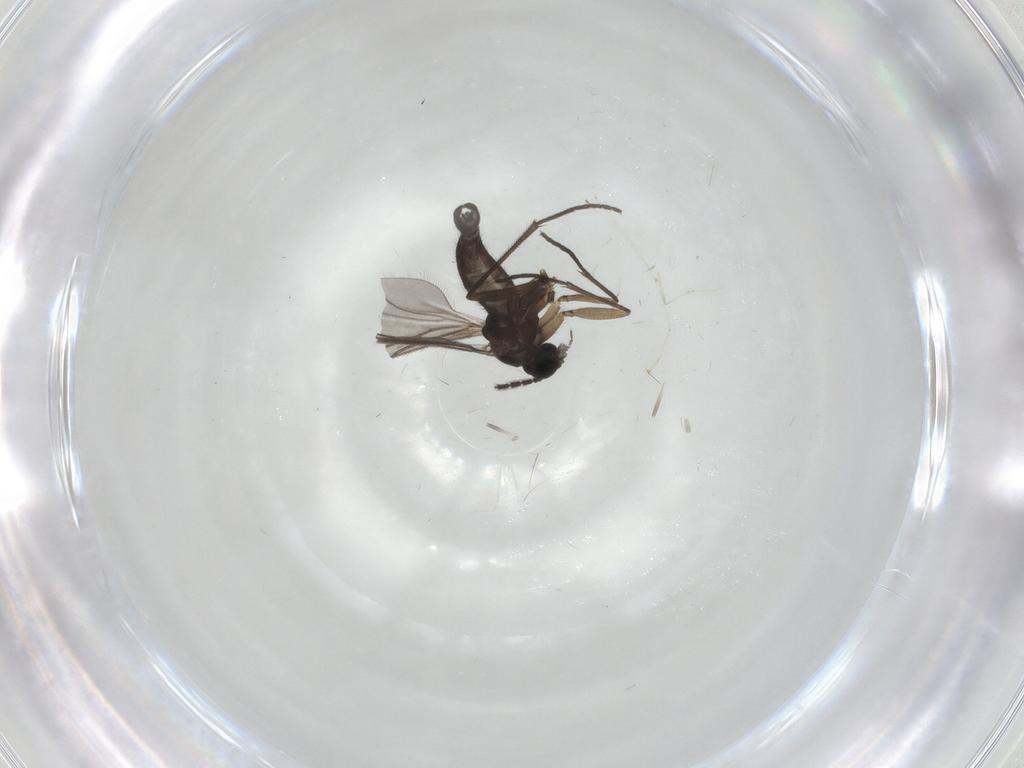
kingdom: Animalia
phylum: Arthropoda
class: Insecta
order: Diptera
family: Sciaridae
